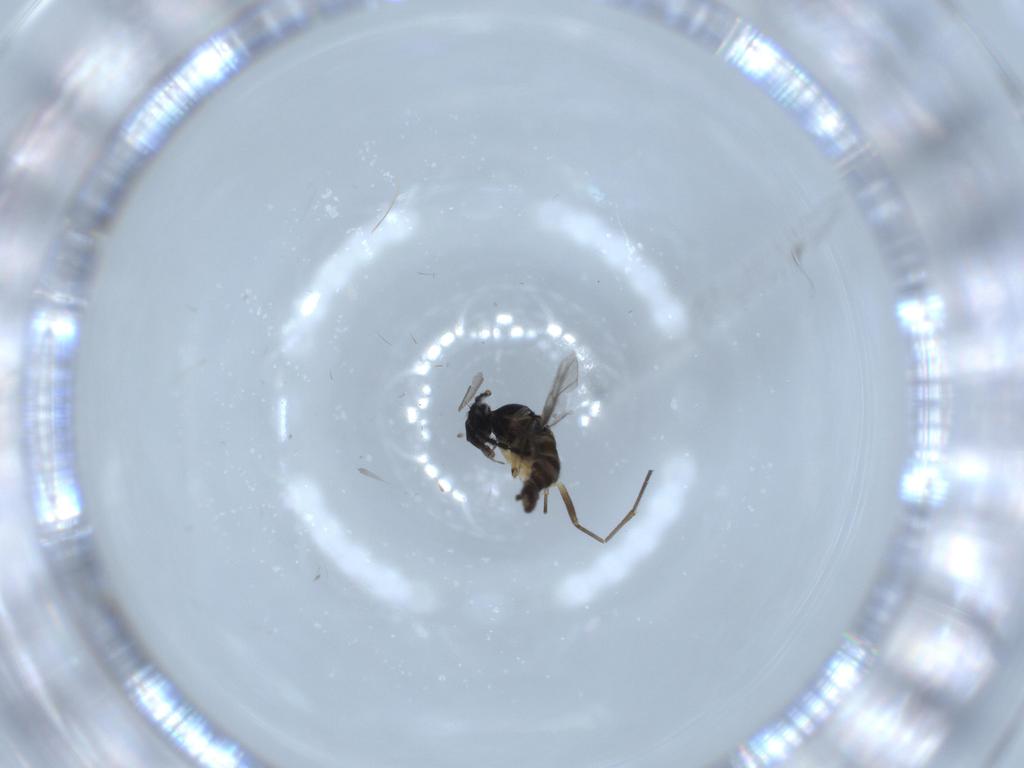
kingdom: Animalia
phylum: Arthropoda
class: Insecta
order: Diptera
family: Sciaridae
